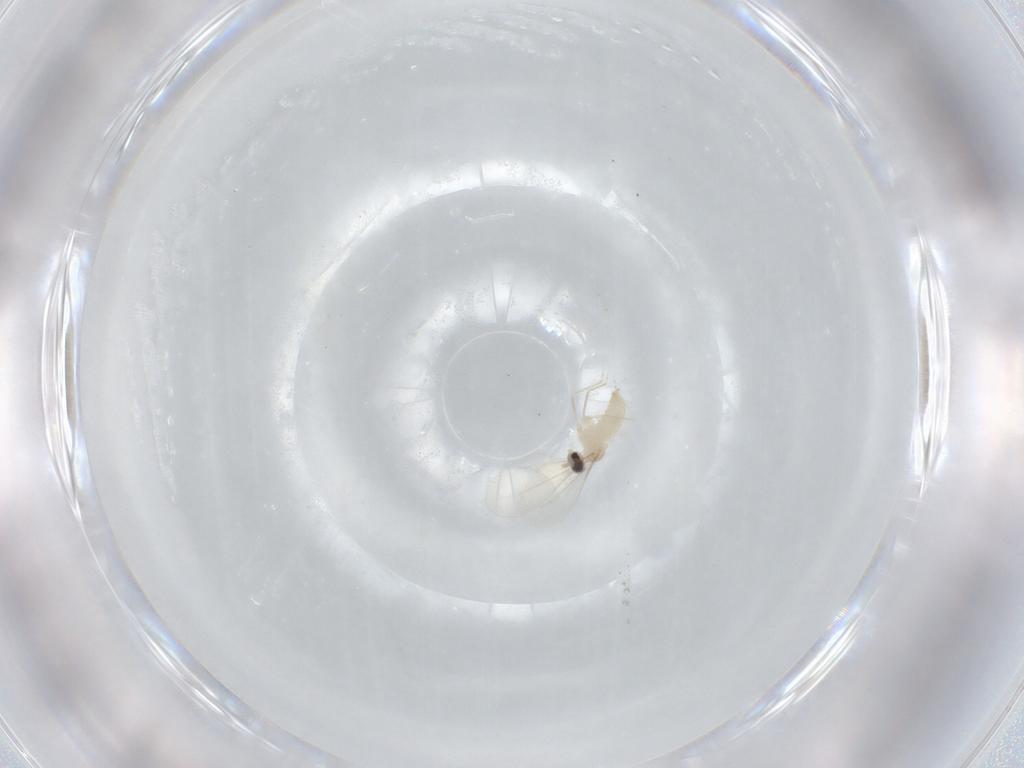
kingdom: Animalia
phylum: Arthropoda
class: Insecta
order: Diptera
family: Cecidomyiidae
